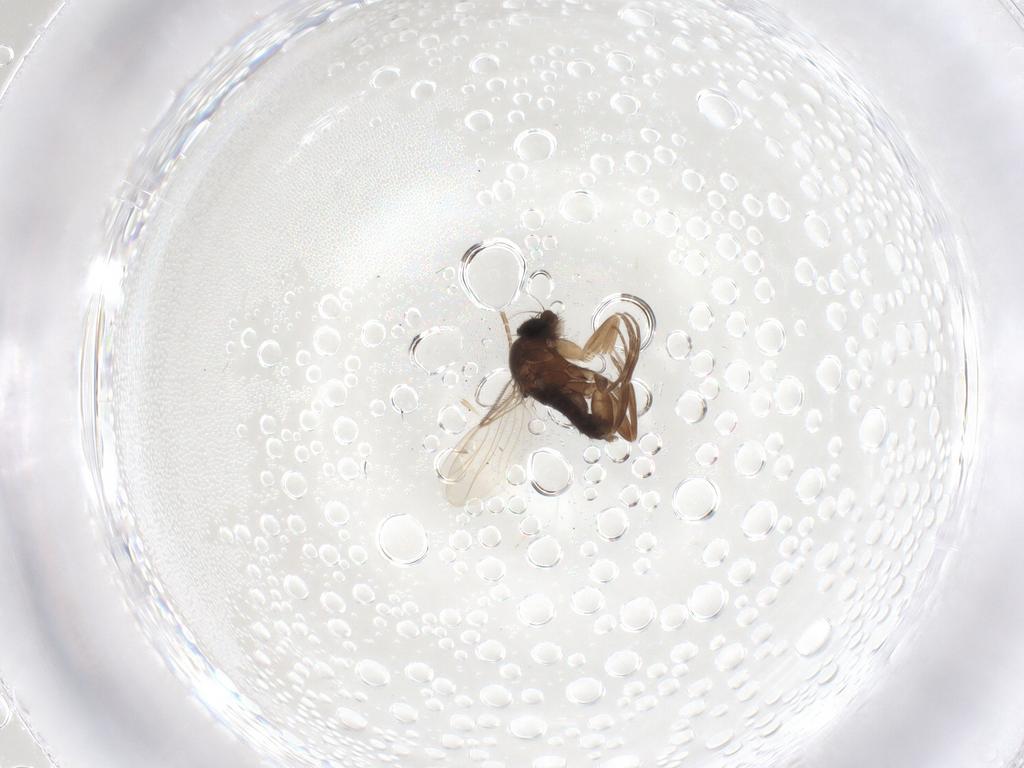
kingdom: Animalia
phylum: Arthropoda
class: Insecta
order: Diptera
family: Phoridae
